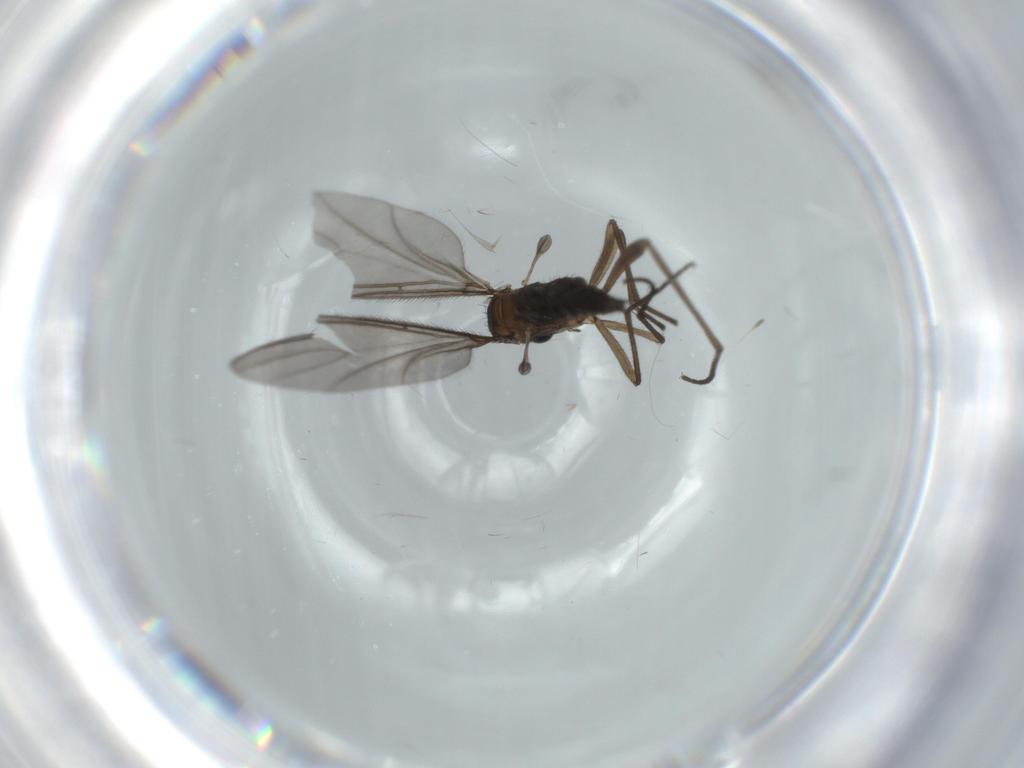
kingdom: Animalia
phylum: Arthropoda
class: Insecta
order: Diptera
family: Sciaridae
